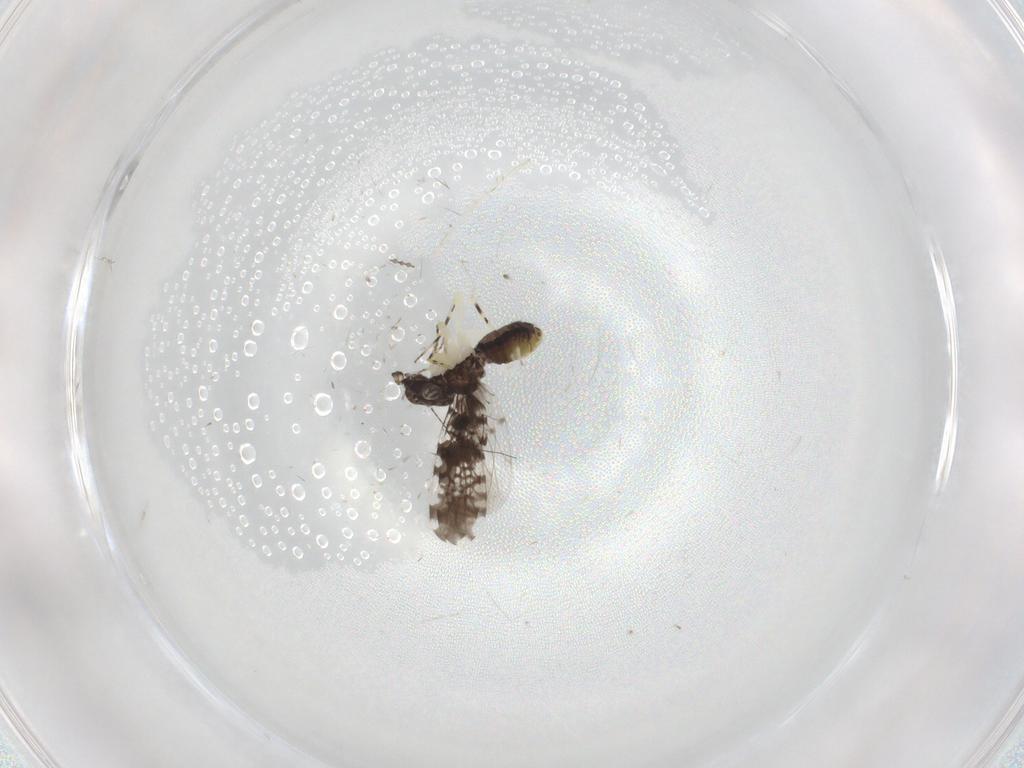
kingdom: Animalia
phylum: Arthropoda
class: Insecta
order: Psocodea
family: Psoquillidae
